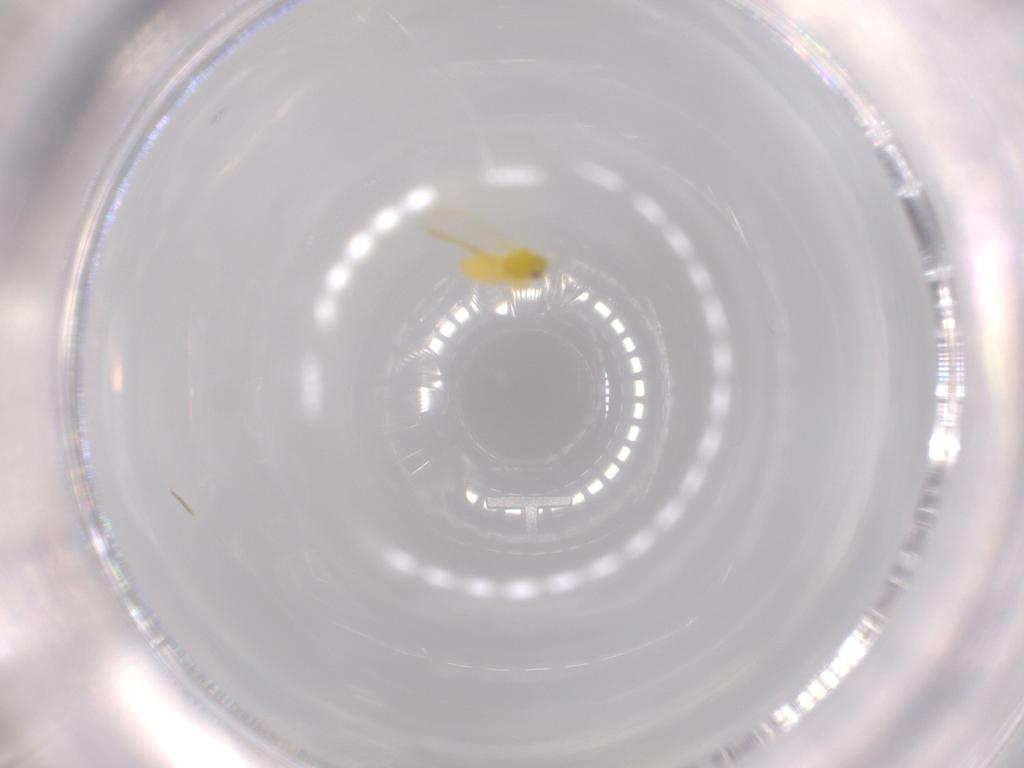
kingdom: Animalia
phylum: Arthropoda
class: Insecta
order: Hemiptera
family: Aleyrodidae
